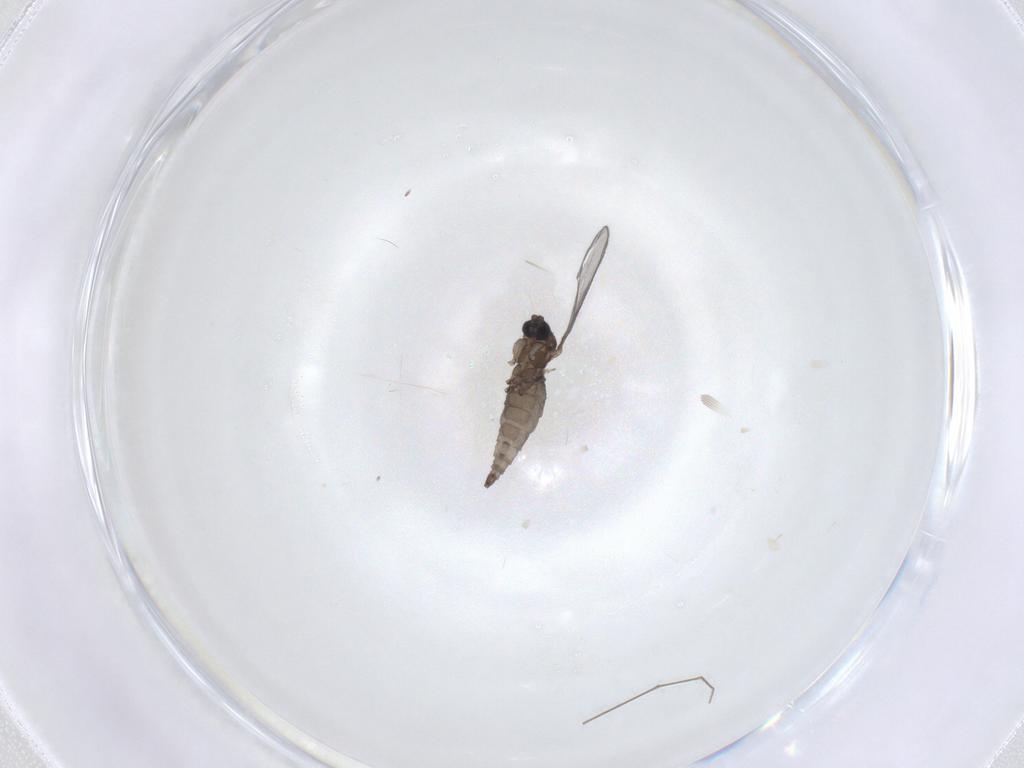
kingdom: Animalia
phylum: Arthropoda
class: Insecta
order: Diptera
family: Chironomidae
